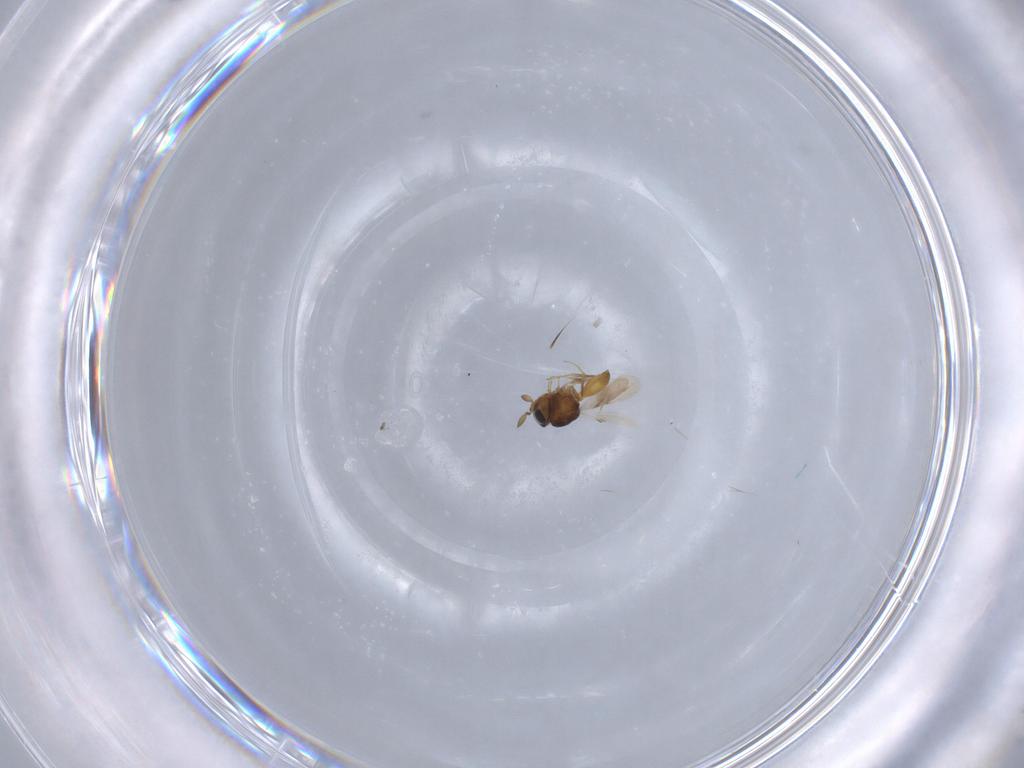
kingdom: Animalia
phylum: Arthropoda
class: Insecta
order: Hymenoptera
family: Scelionidae
